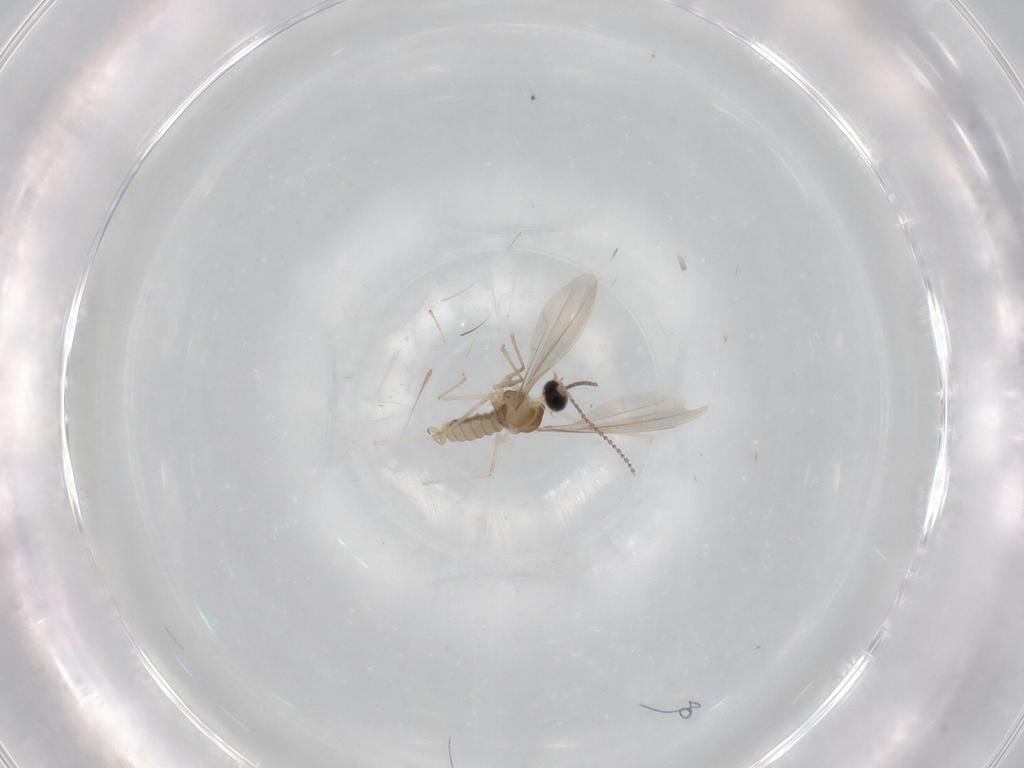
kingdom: Animalia
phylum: Arthropoda
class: Insecta
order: Diptera
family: Cecidomyiidae
